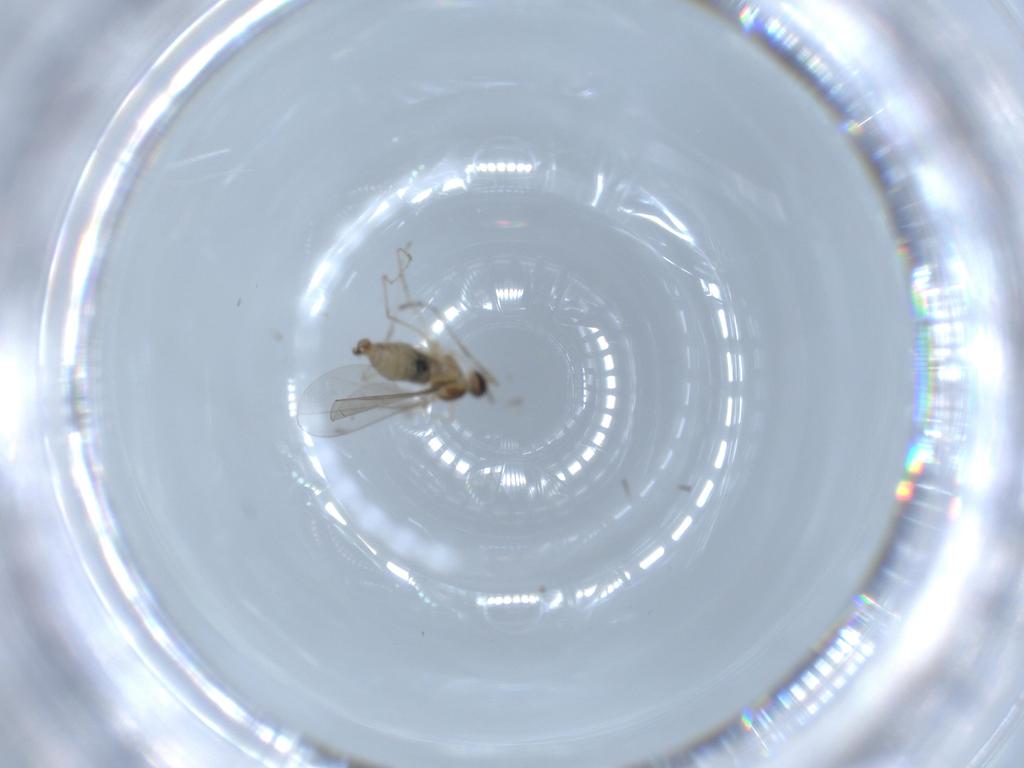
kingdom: Animalia
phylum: Arthropoda
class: Insecta
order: Diptera
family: Cecidomyiidae
